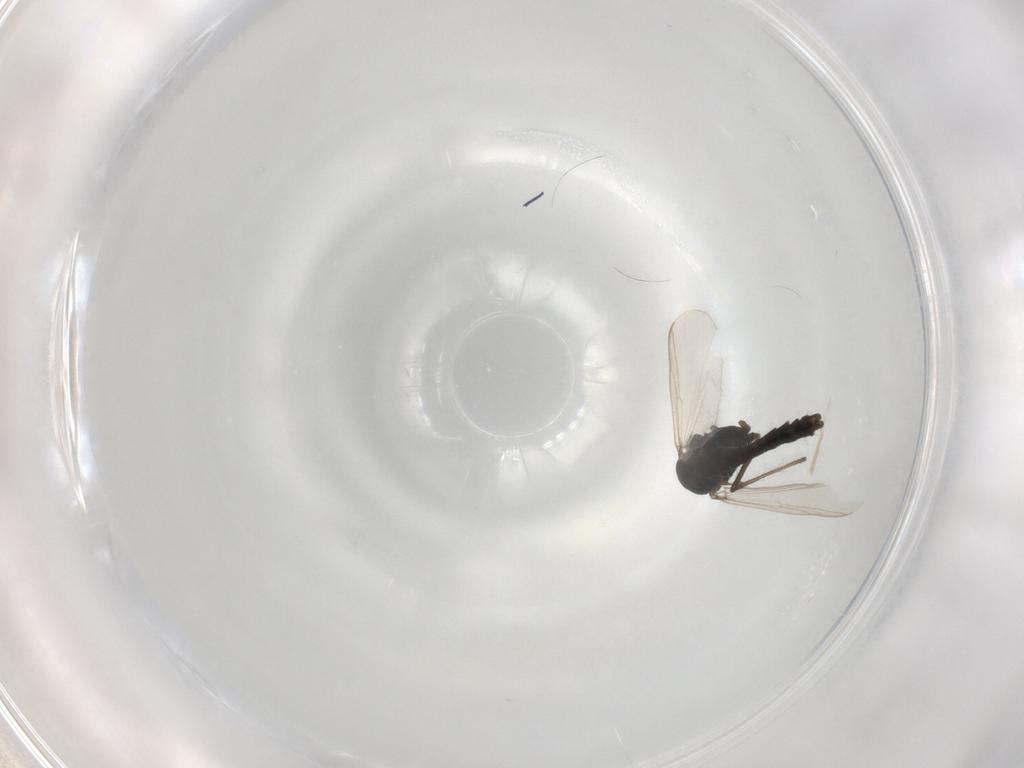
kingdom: Animalia
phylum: Arthropoda
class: Insecta
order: Diptera
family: Chironomidae
